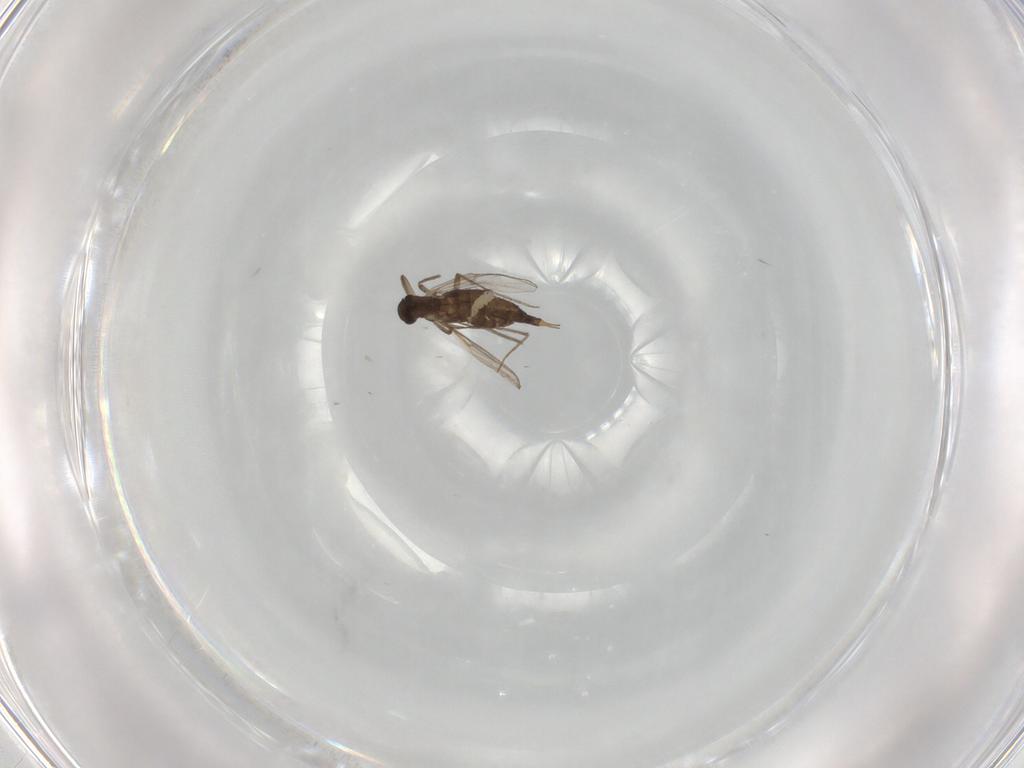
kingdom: Animalia
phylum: Arthropoda
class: Insecta
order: Diptera
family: Chironomidae
